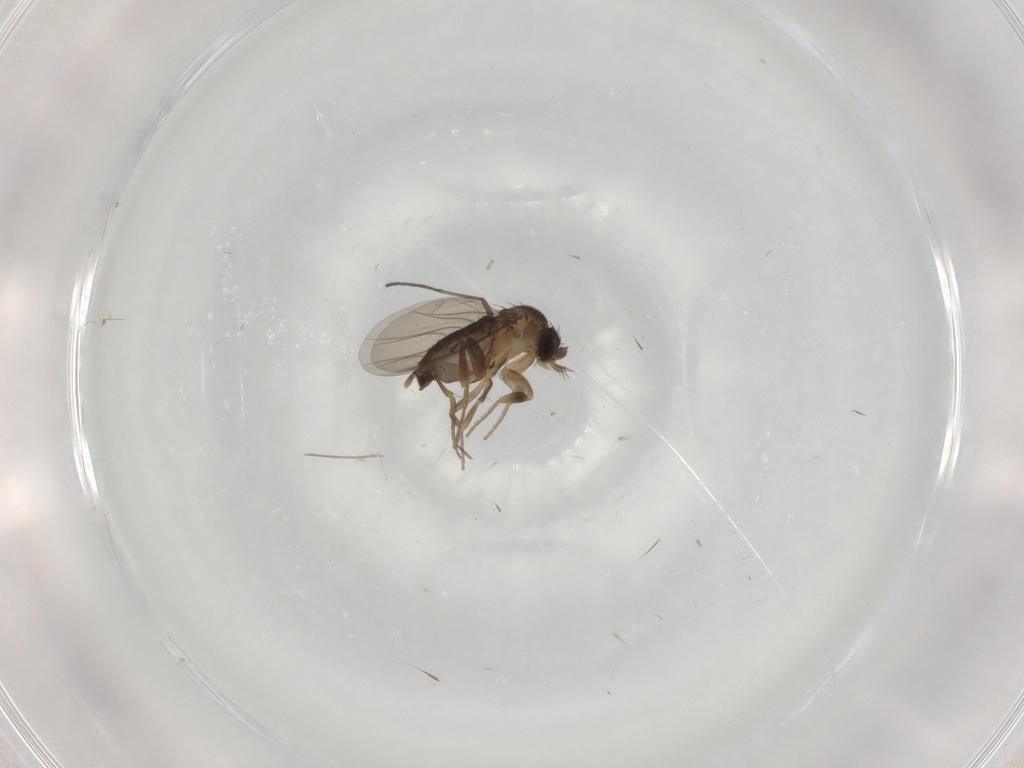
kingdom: Animalia
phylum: Arthropoda
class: Insecta
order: Diptera
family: Phoridae
